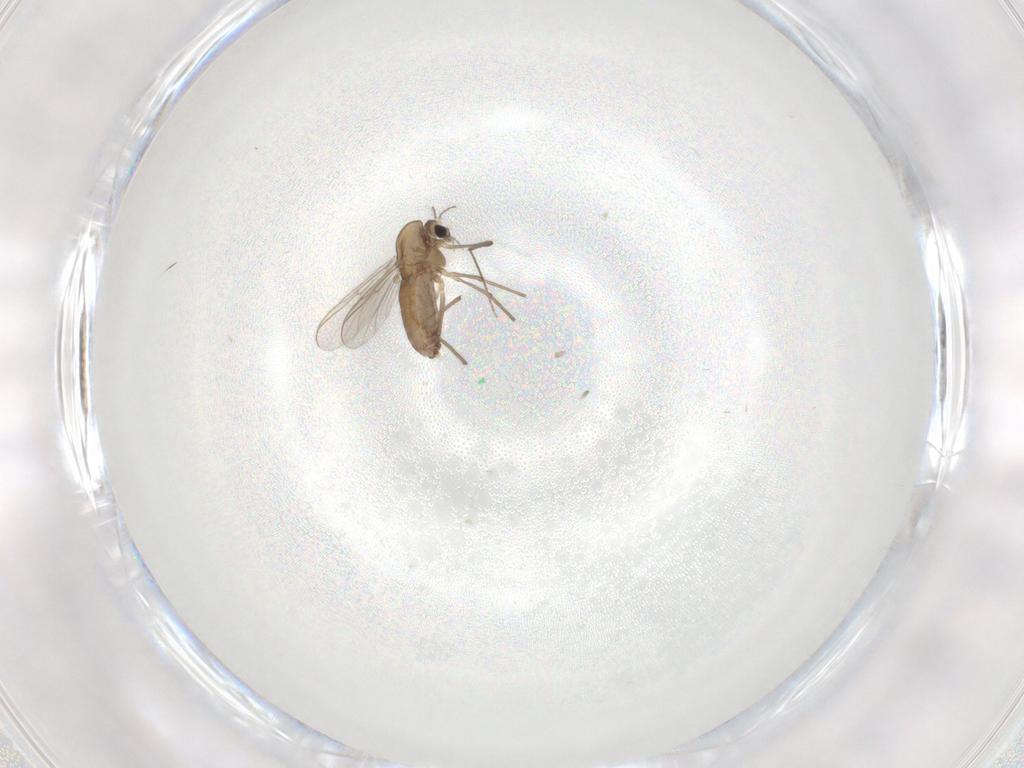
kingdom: Animalia
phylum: Arthropoda
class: Insecta
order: Diptera
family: Chironomidae
